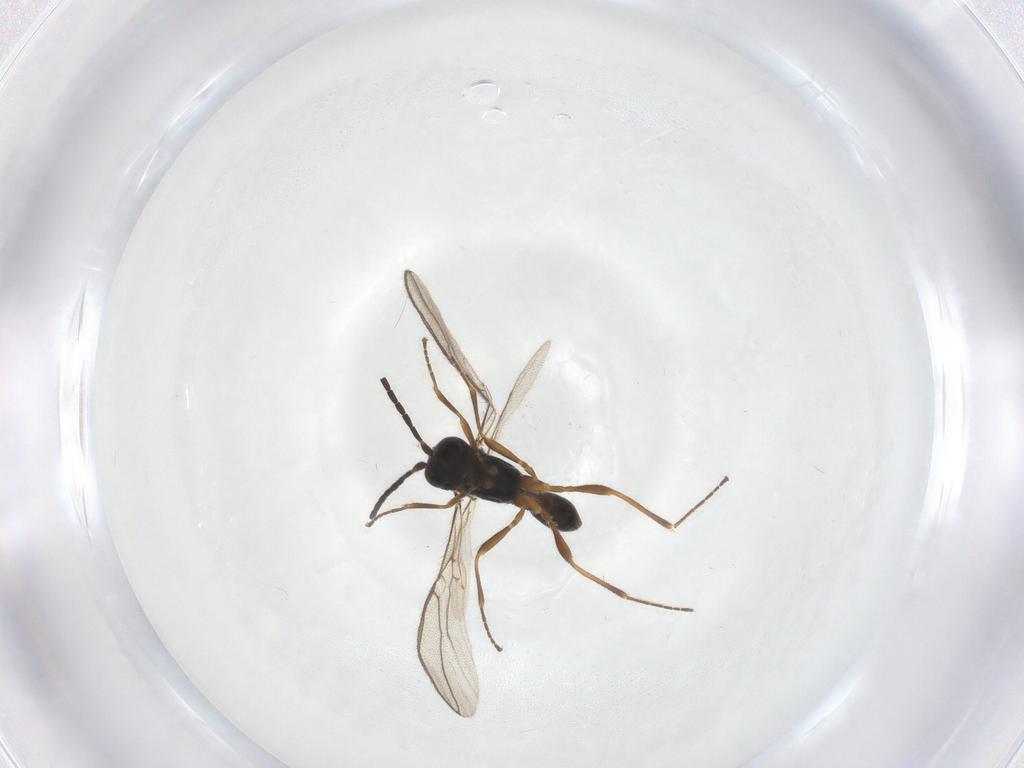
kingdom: Animalia
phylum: Arthropoda
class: Insecta
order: Hymenoptera
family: Braconidae
